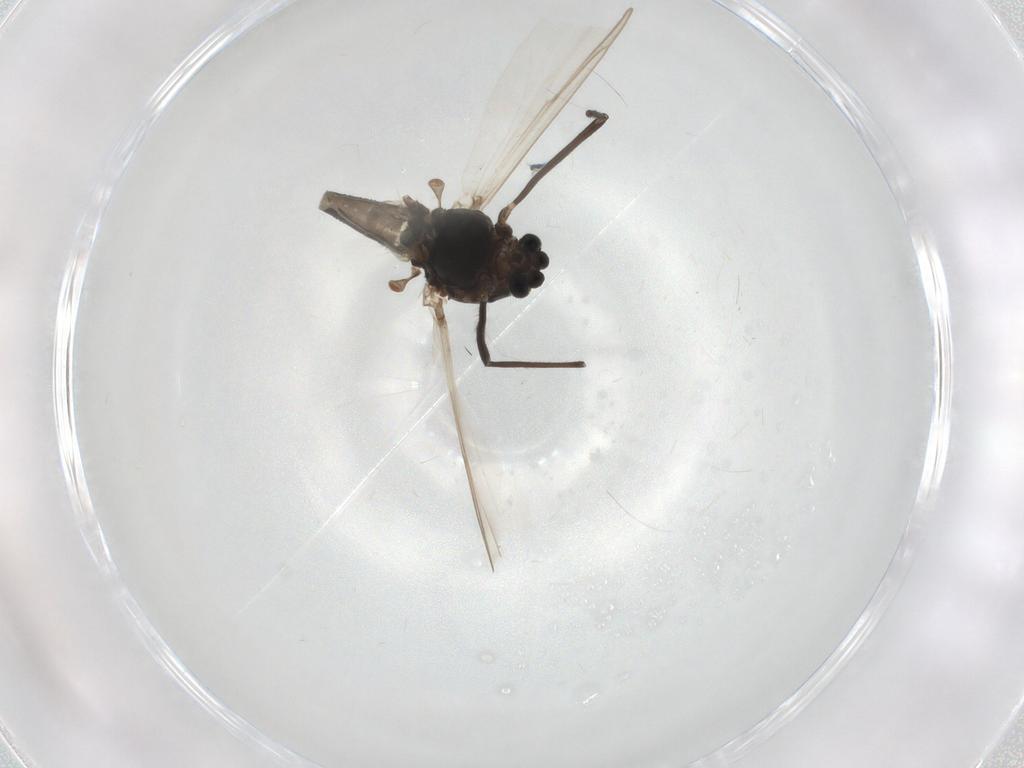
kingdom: Animalia
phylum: Arthropoda
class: Insecta
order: Diptera
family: Chironomidae
